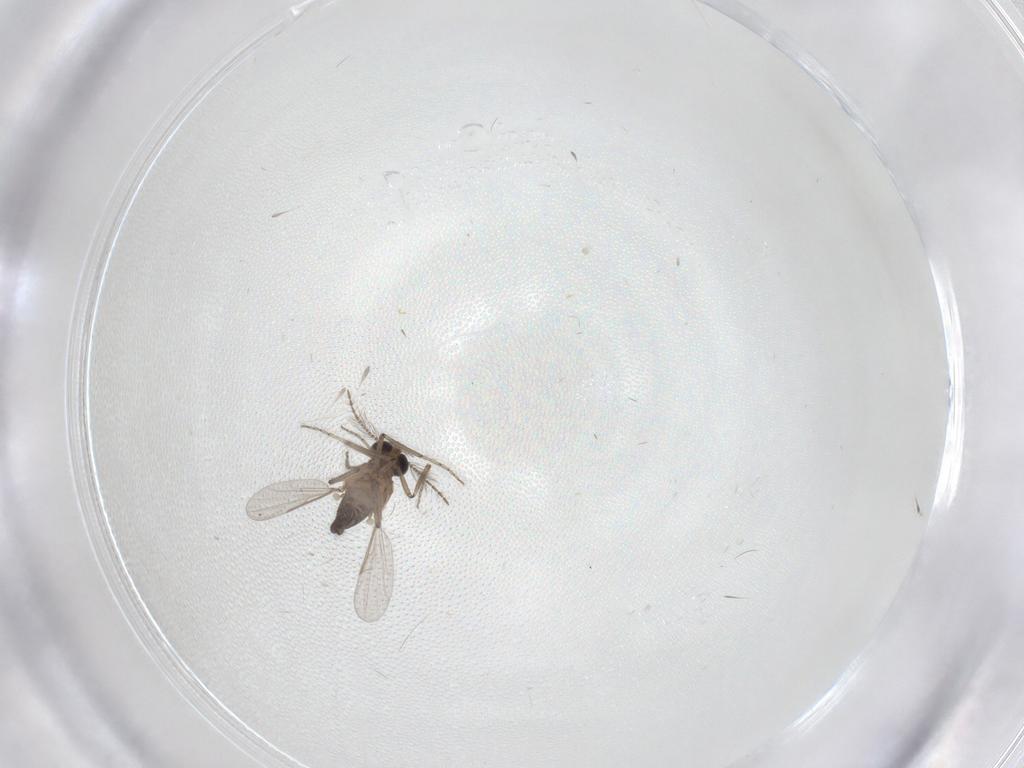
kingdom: Animalia
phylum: Arthropoda
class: Insecta
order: Diptera
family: Ceratopogonidae
